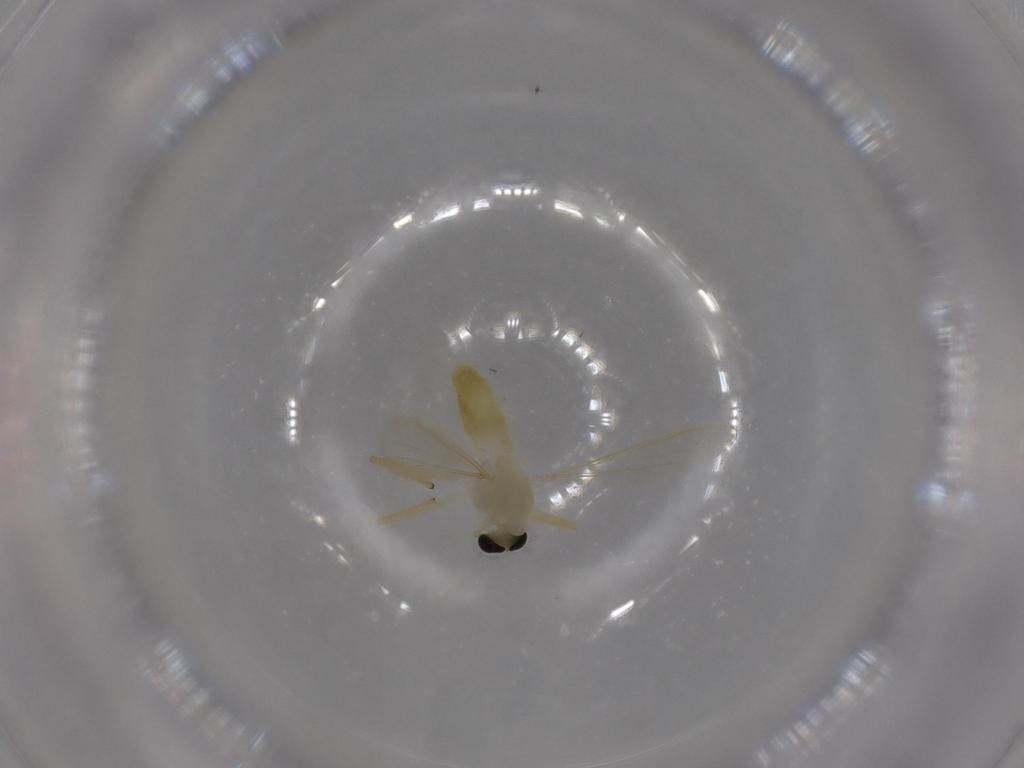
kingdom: Animalia
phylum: Arthropoda
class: Insecta
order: Diptera
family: Chironomidae
